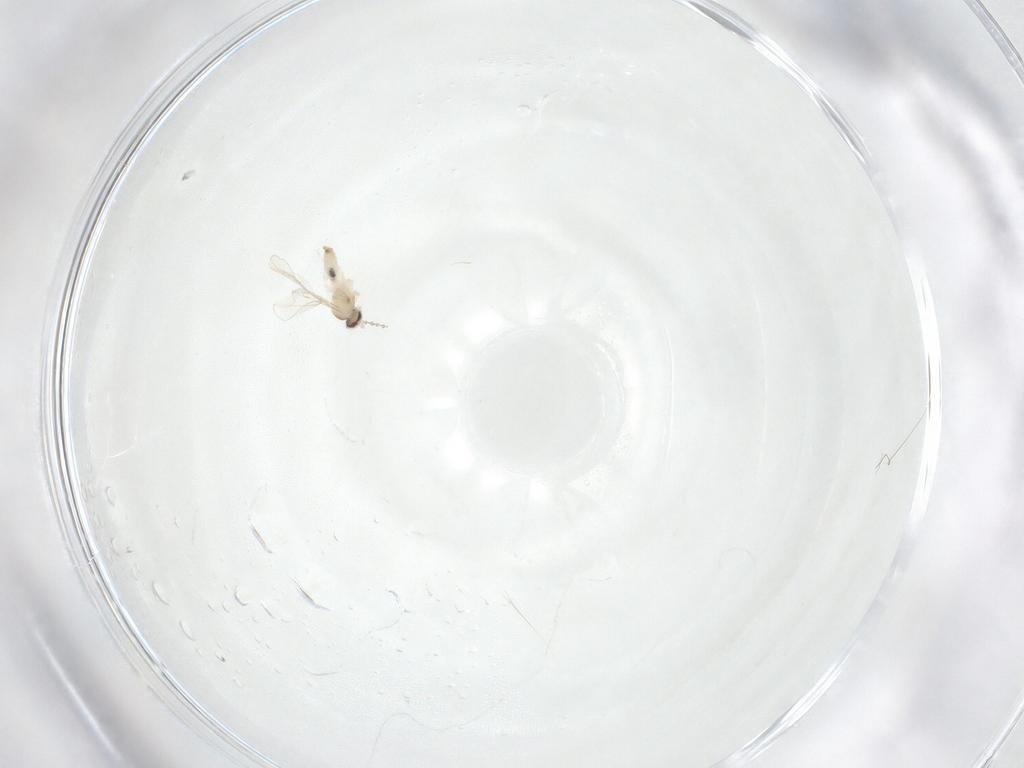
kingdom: Animalia
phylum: Arthropoda
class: Insecta
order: Diptera
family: Cecidomyiidae
